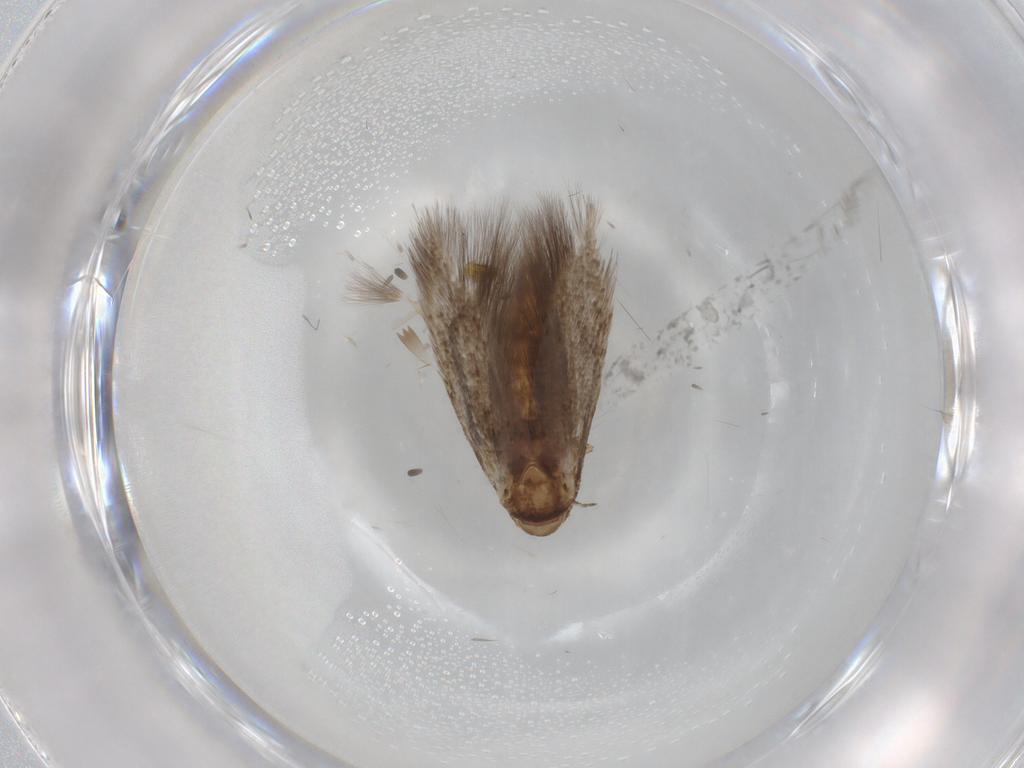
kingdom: Animalia
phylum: Arthropoda
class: Insecta
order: Lepidoptera
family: Elachistidae
